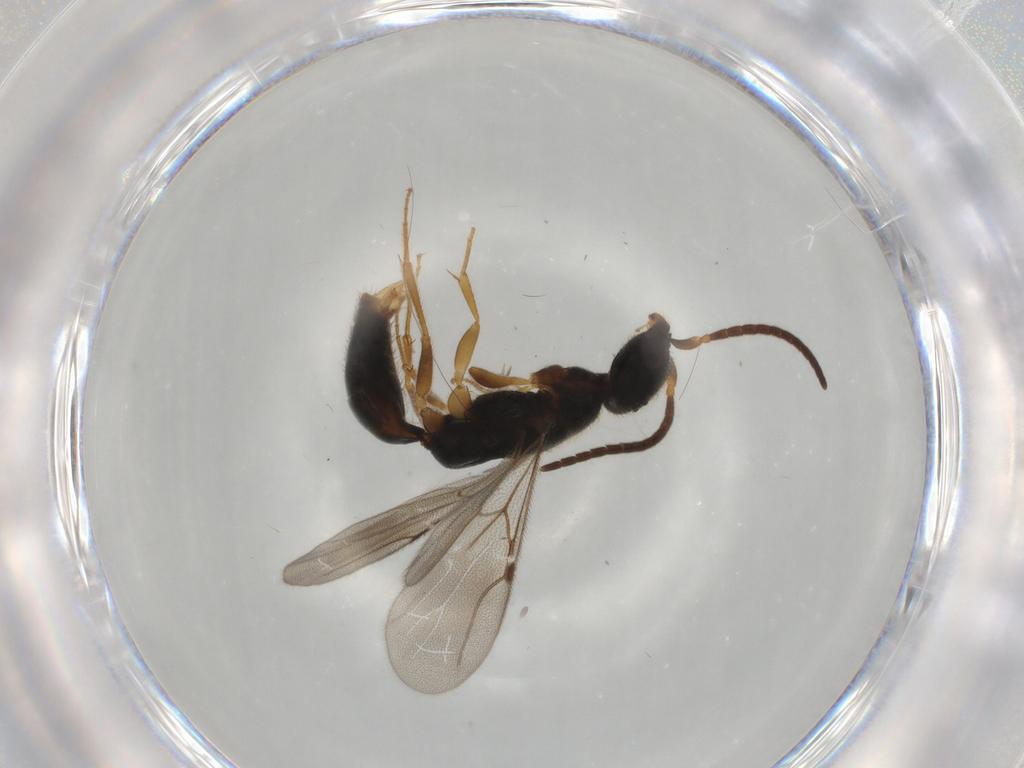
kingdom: Animalia
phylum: Arthropoda
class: Insecta
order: Hymenoptera
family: Bethylidae
